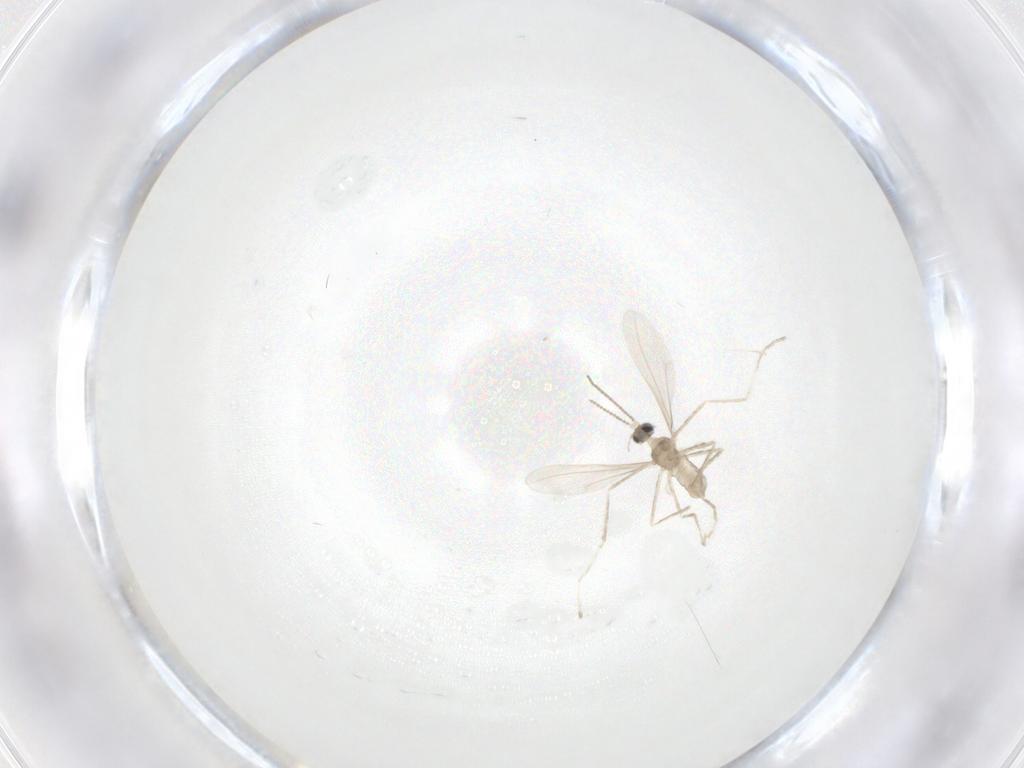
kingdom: Animalia
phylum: Arthropoda
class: Insecta
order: Diptera
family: Cecidomyiidae
